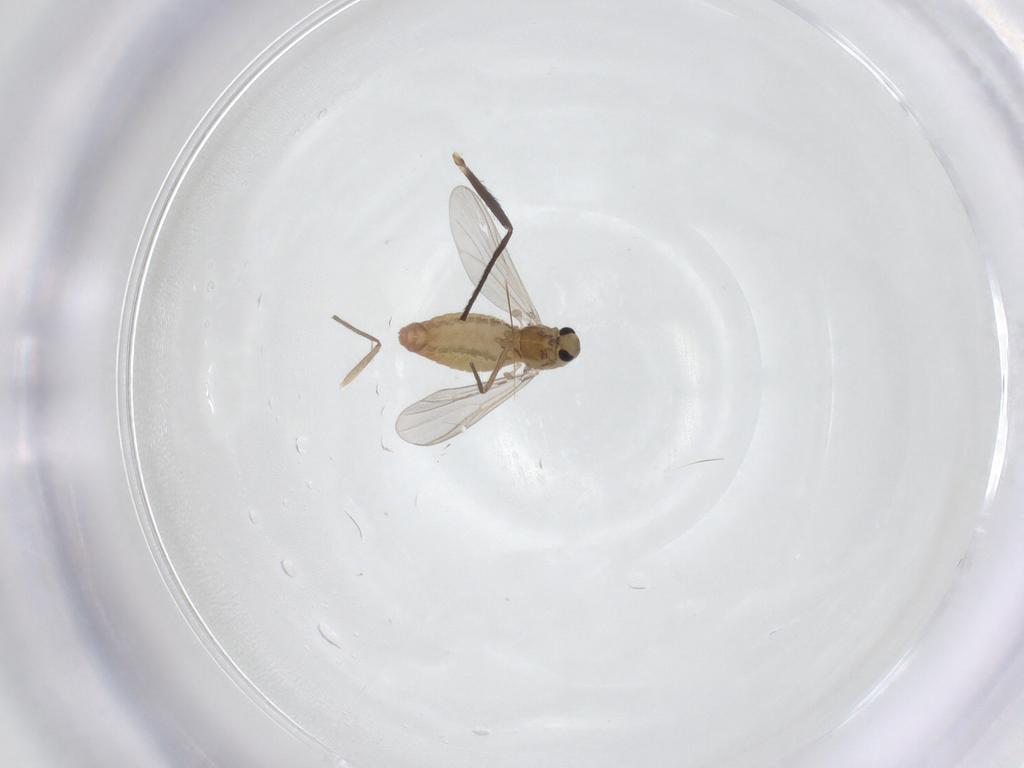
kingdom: Animalia
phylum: Arthropoda
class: Insecta
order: Diptera
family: Chironomidae
